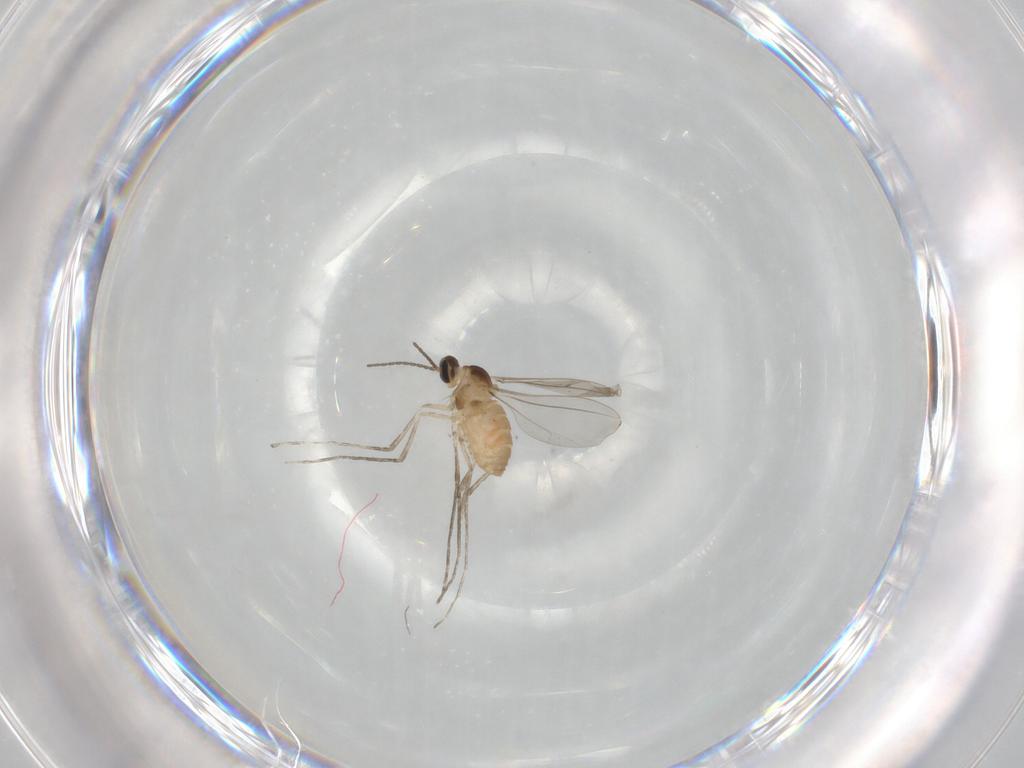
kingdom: Animalia
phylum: Arthropoda
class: Insecta
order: Diptera
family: Cecidomyiidae
